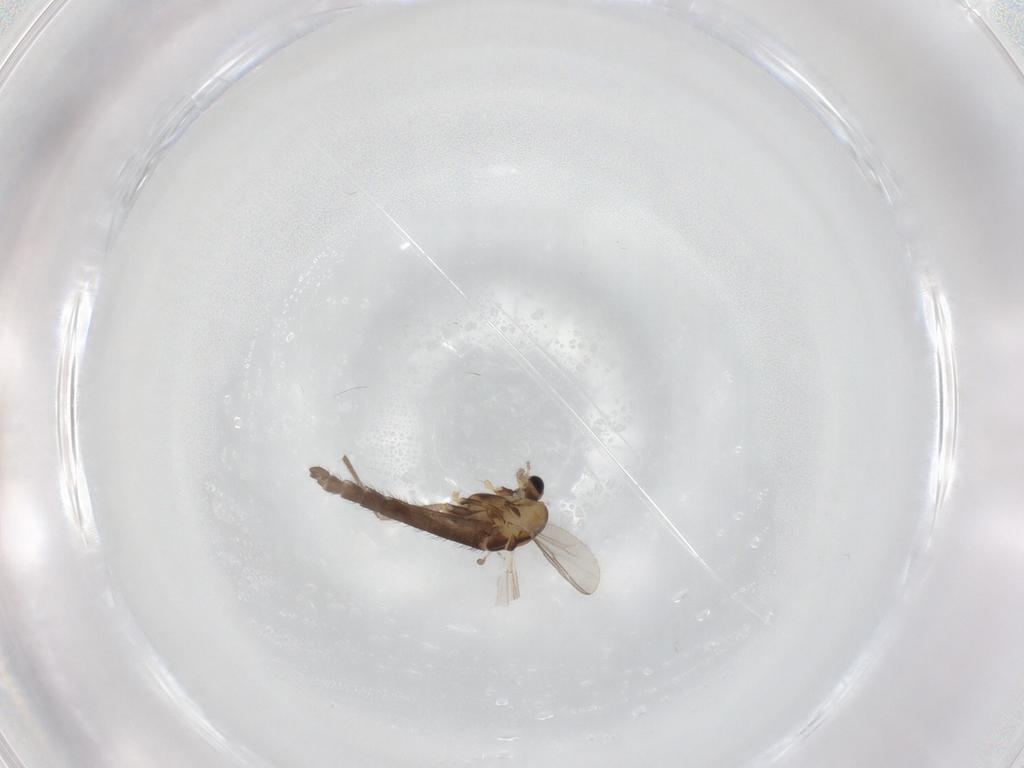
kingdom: Animalia
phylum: Arthropoda
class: Insecta
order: Diptera
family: Chironomidae
